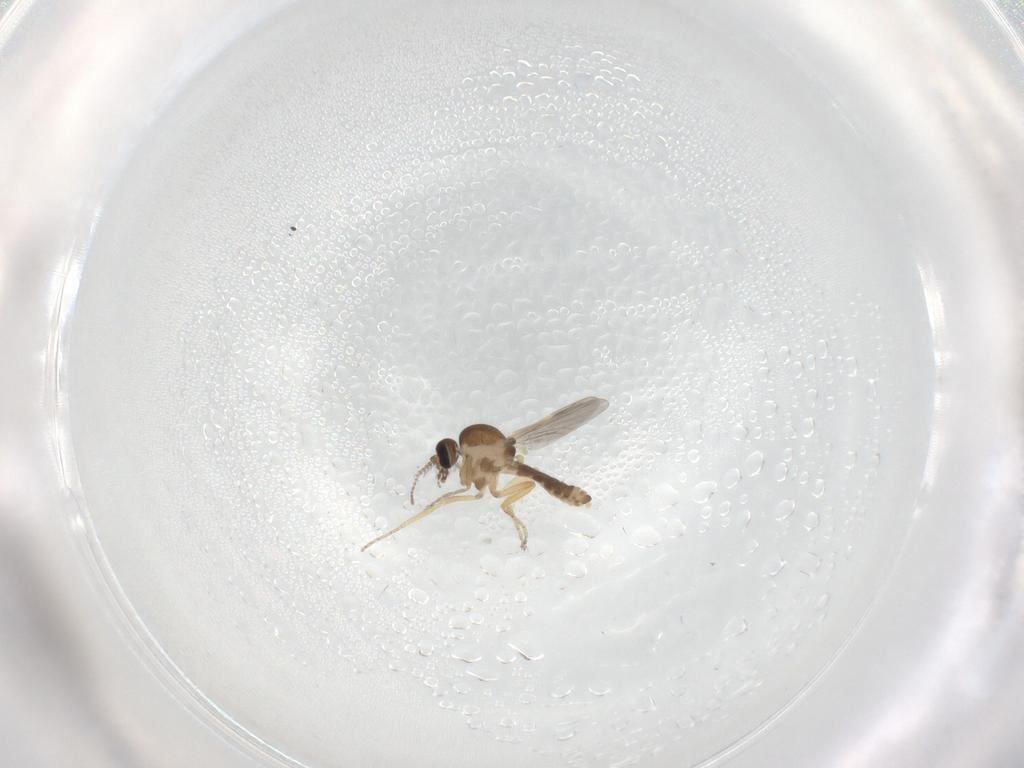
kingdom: Animalia
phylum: Arthropoda
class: Insecta
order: Diptera
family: Ceratopogonidae
